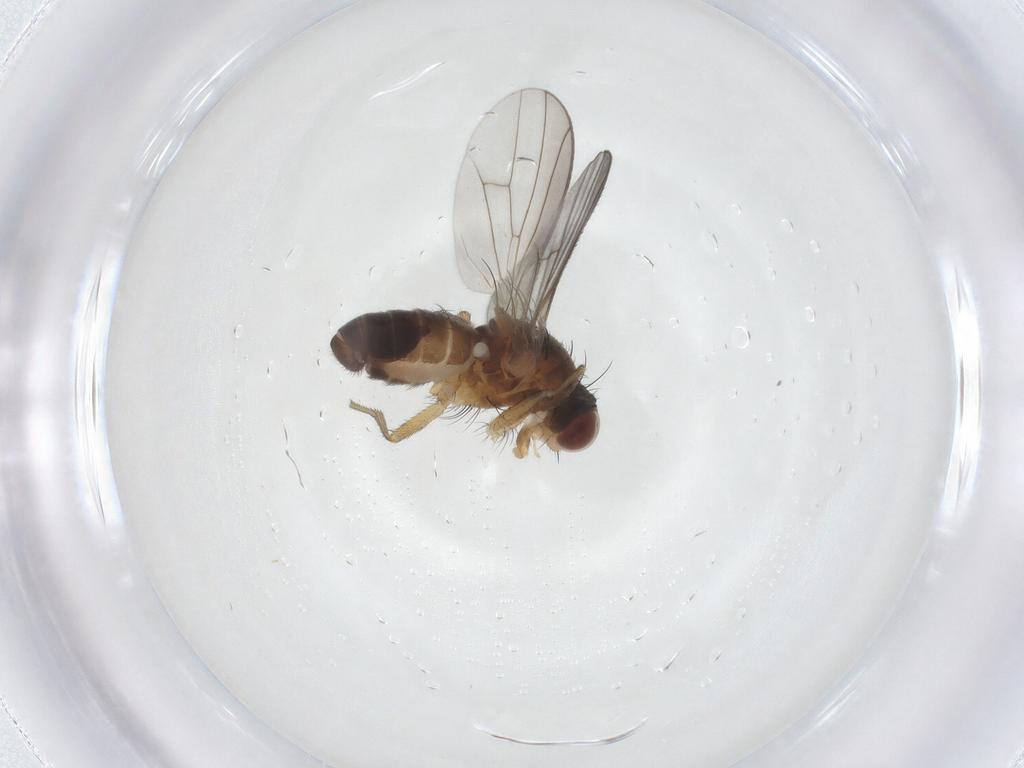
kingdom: Animalia
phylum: Arthropoda
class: Insecta
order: Diptera
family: Heleomyzidae
